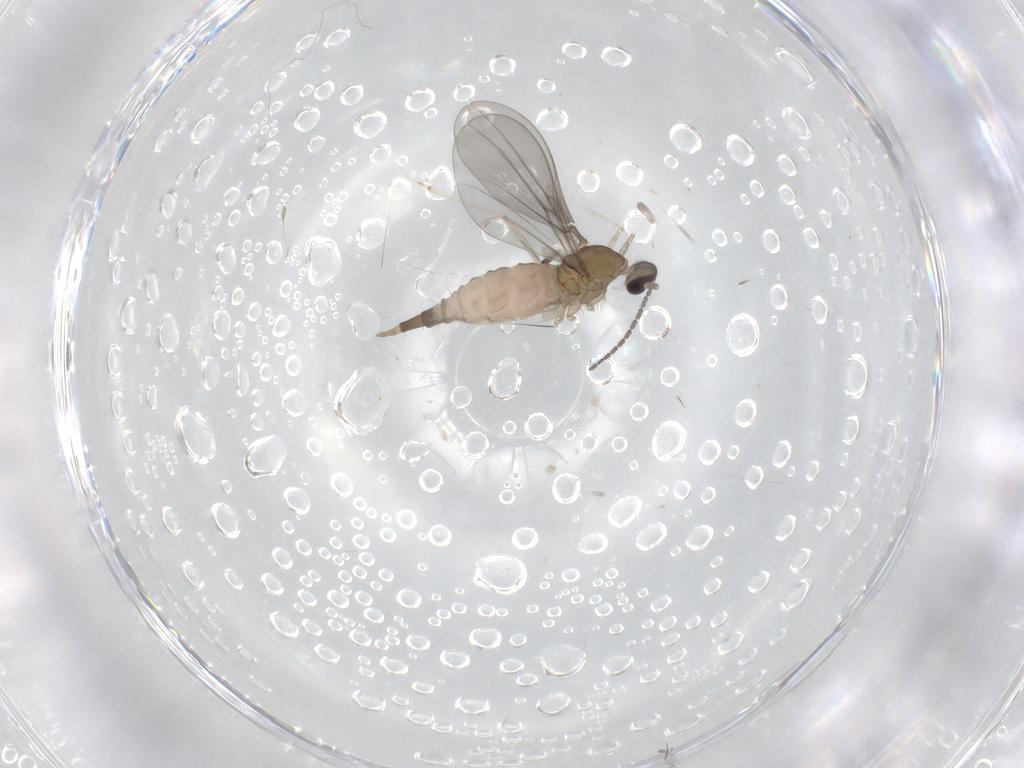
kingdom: Animalia
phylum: Arthropoda
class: Insecta
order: Diptera
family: Cecidomyiidae
